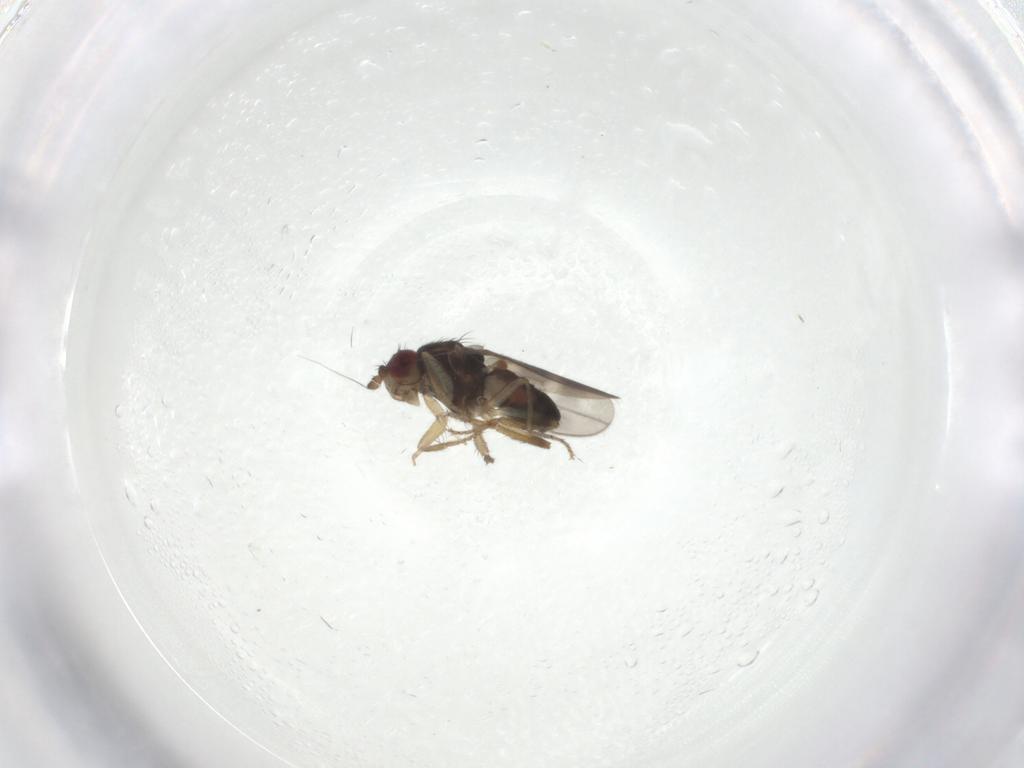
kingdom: Animalia
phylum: Arthropoda
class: Insecta
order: Diptera
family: Sphaeroceridae
